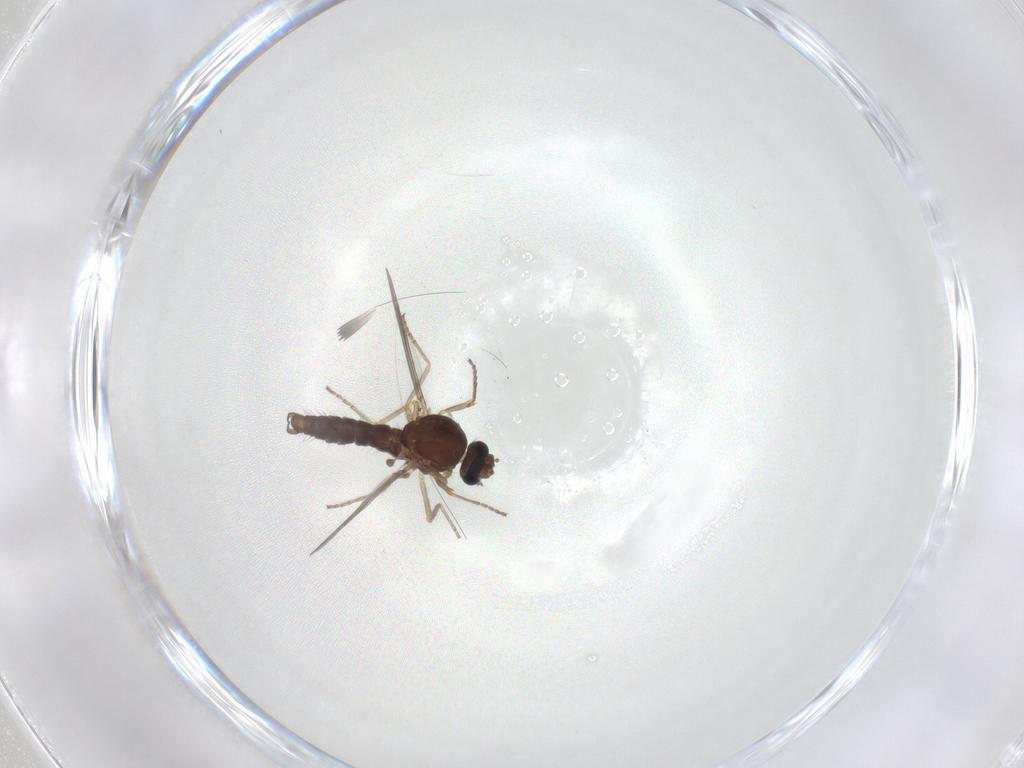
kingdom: Animalia
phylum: Arthropoda
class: Insecta
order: Diptera
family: Ceratopogonidae
